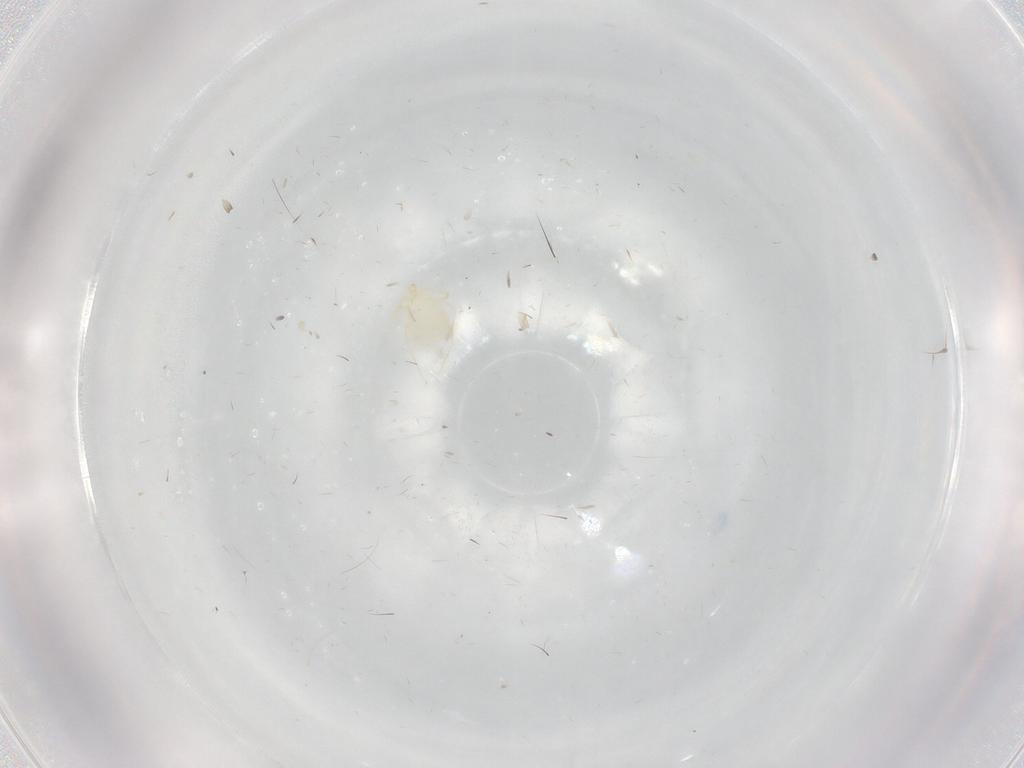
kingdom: Animalia
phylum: Arthropoda
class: Arachnida
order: Trombidiformes
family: Erythraeidae
